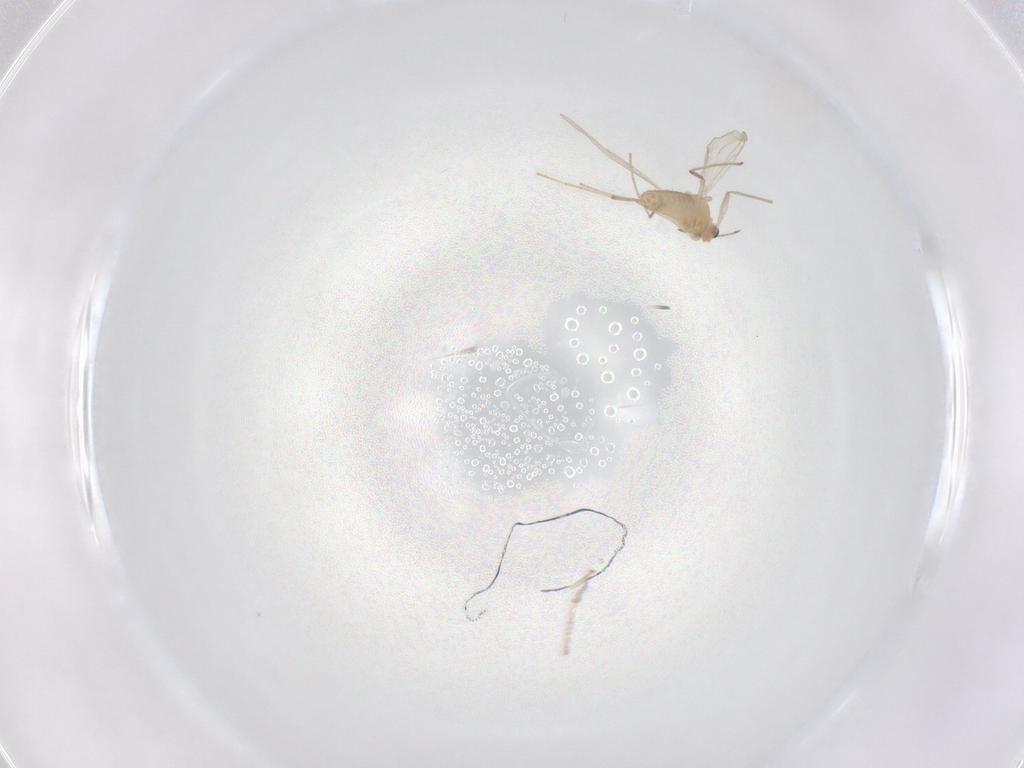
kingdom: Animalia
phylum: Arthropoda
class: Insecta
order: Diptera
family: Chironomidae
